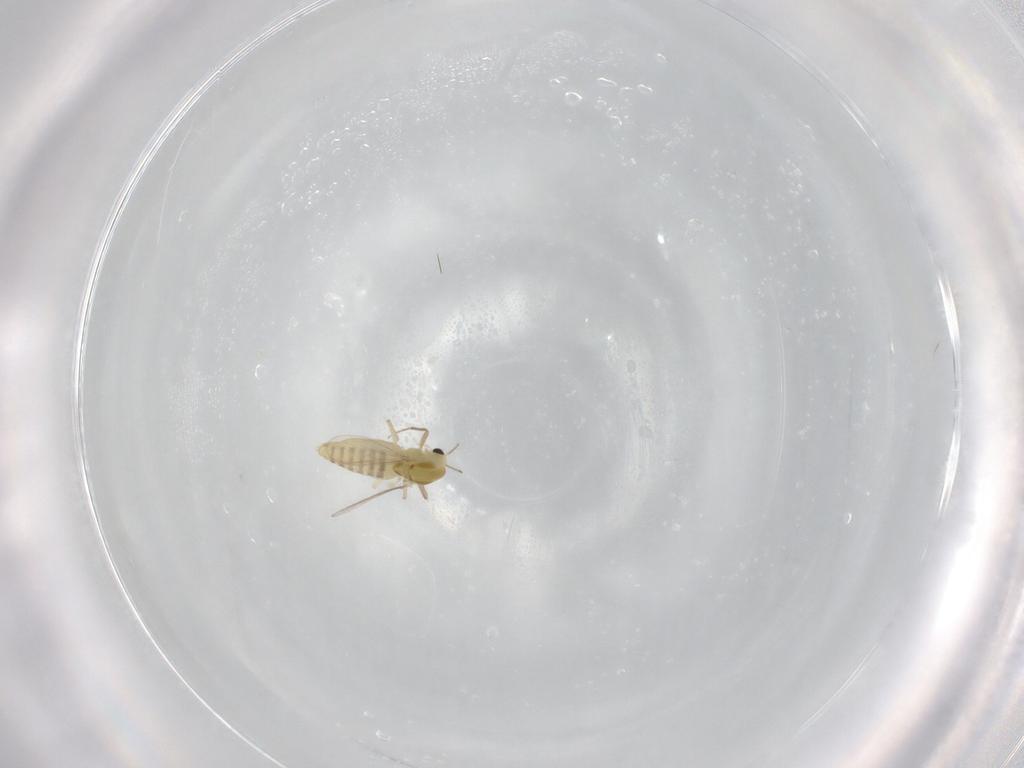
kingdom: Animalia
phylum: Arthropoda
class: Insecta
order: Diptera
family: Chironomidae
